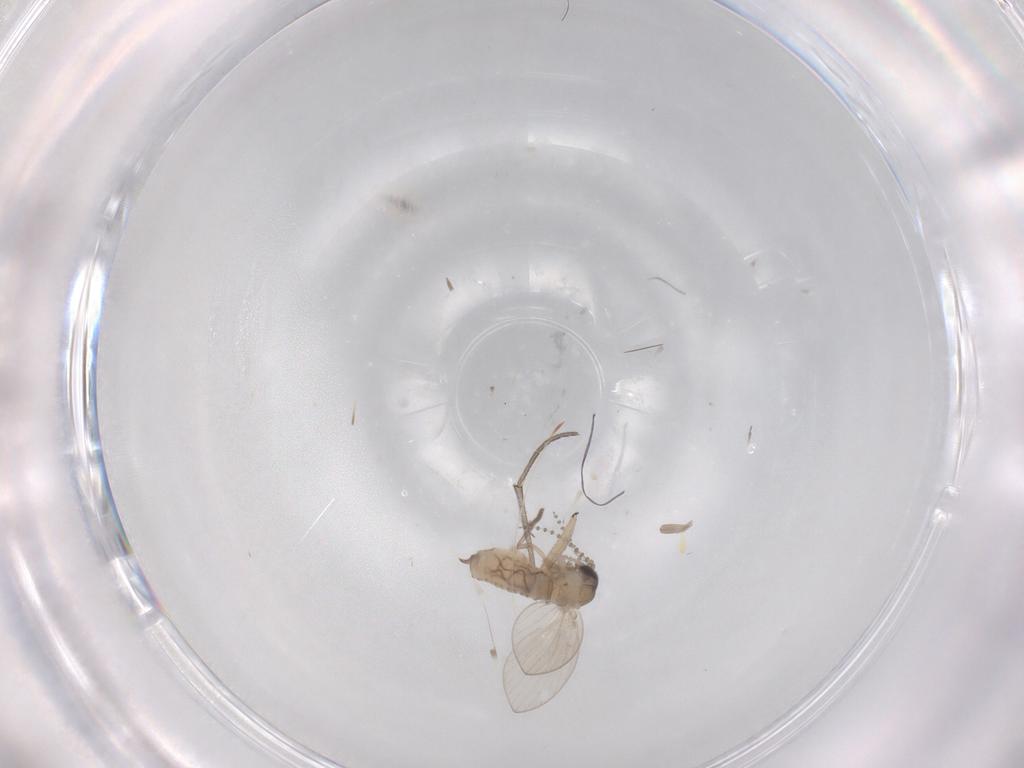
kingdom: Animalia
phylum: Arthropoda
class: Insecta
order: Diptera
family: Psychodidae
